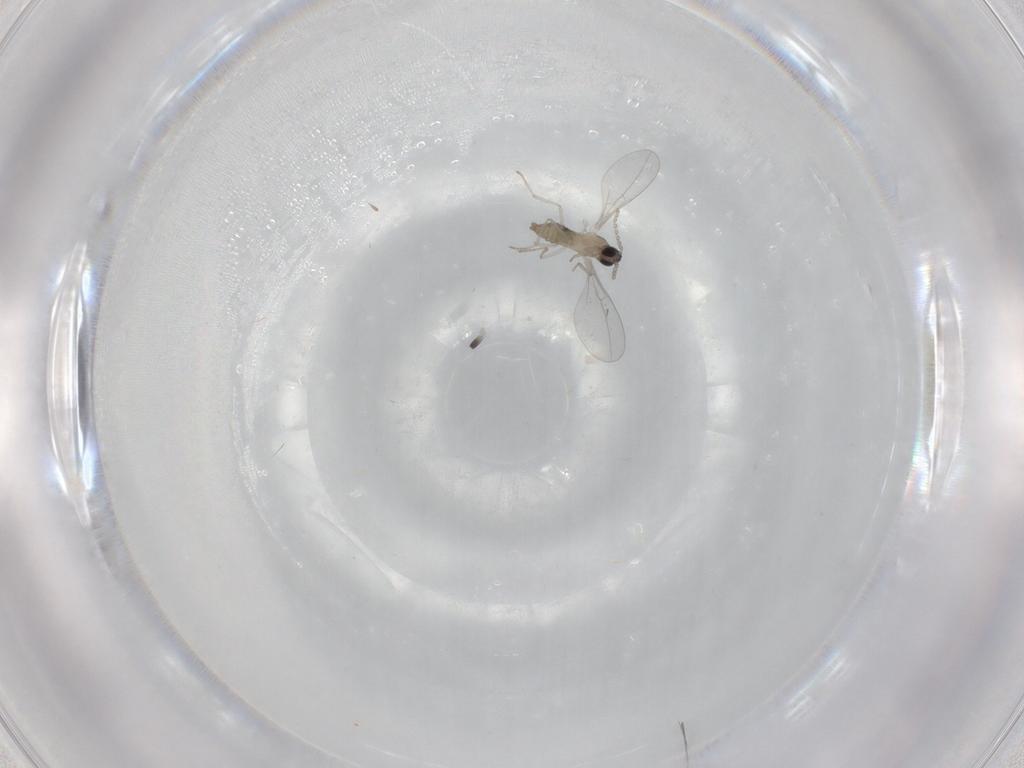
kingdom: Animalia
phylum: Arthropoda
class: Insecta
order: Diptera
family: Cecidomyiidae
